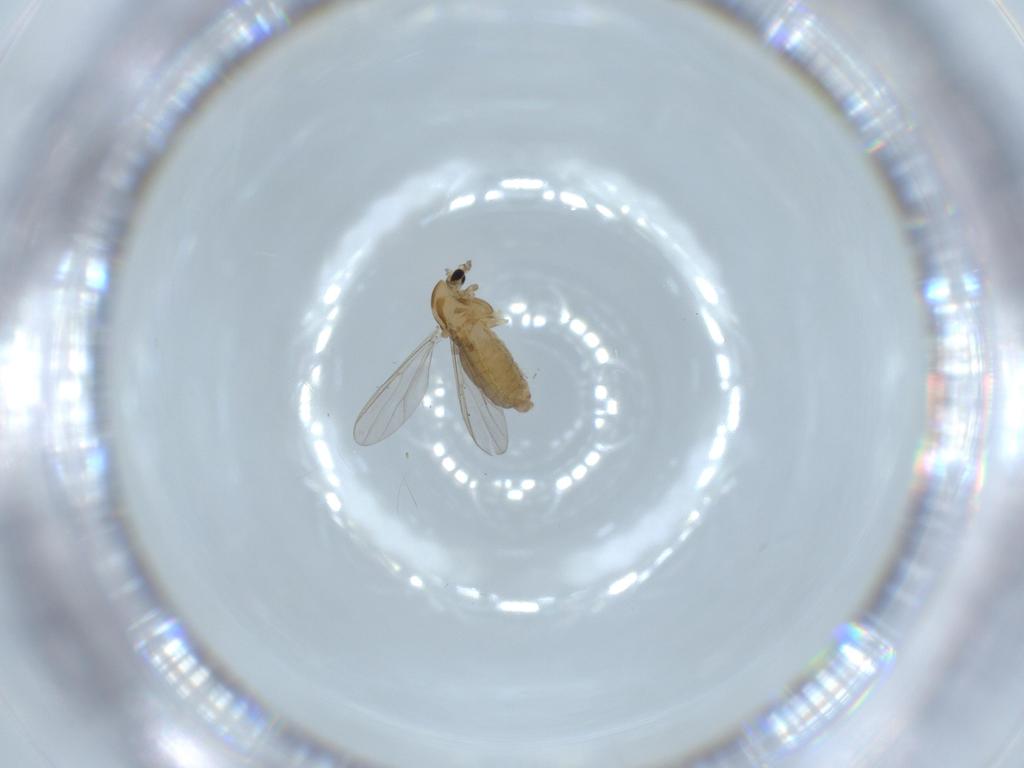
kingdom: Animalia
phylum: Arthropoda
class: Insecta
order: Diptera
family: Chironomidae
